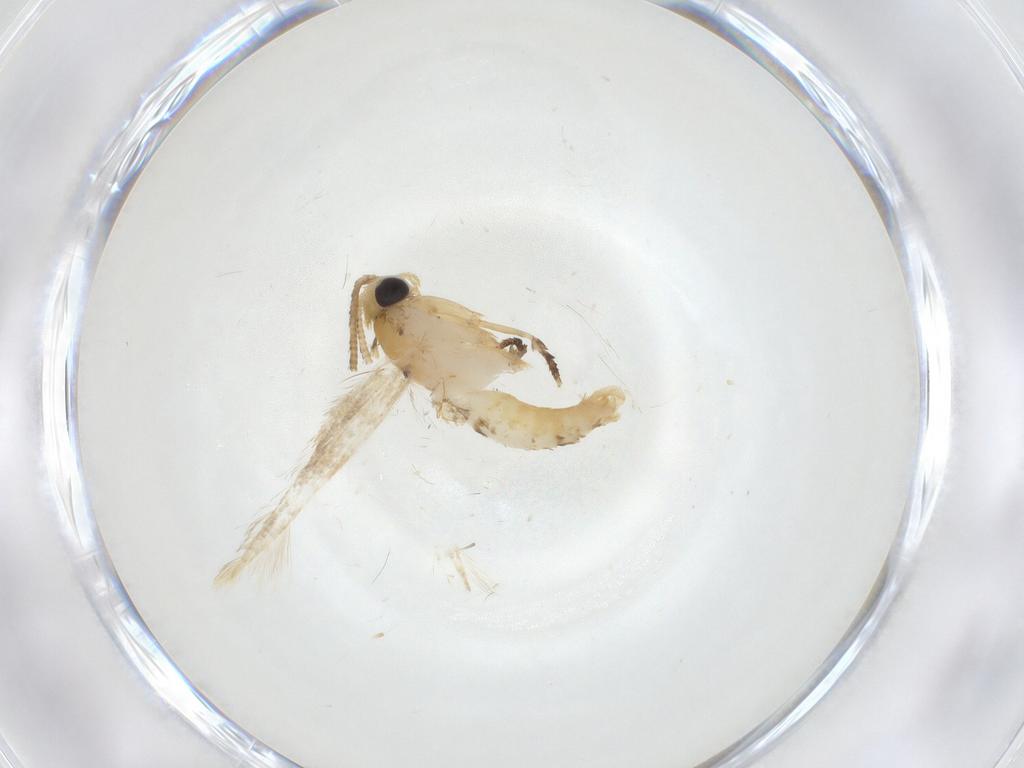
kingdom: Animalia
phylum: Arthropoda
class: Insecta
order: Lepidoptera
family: Tineidae
